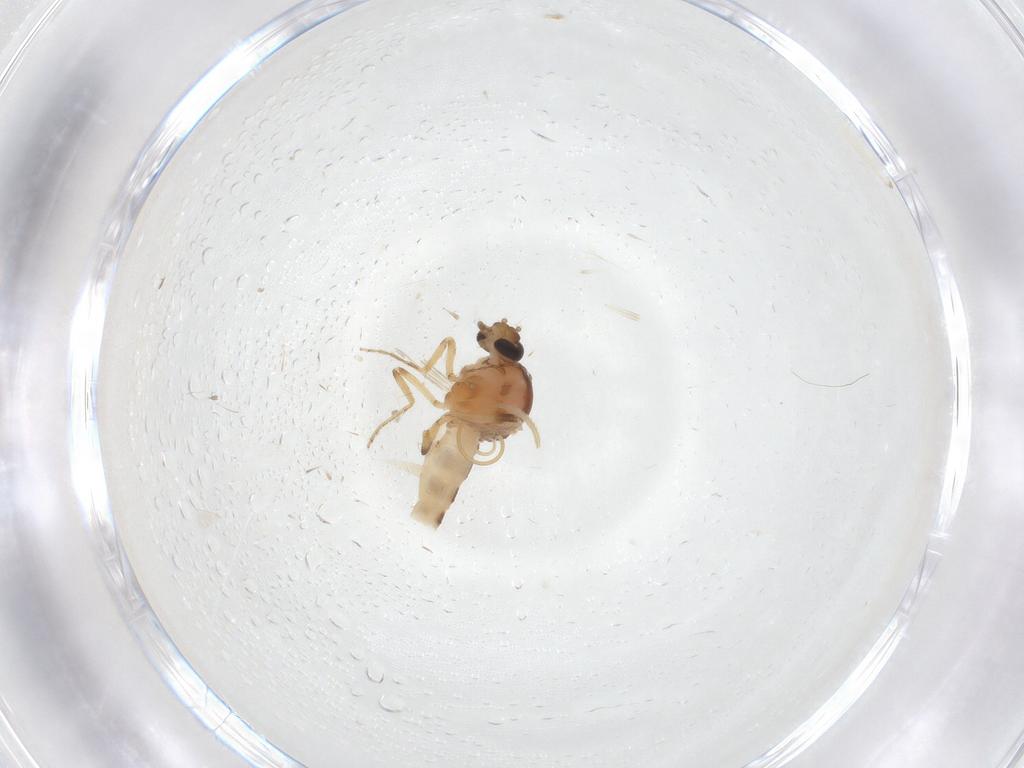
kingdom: Animalia
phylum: Arthropoda
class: Insecta
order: Diptera
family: Ceratopogonidae
